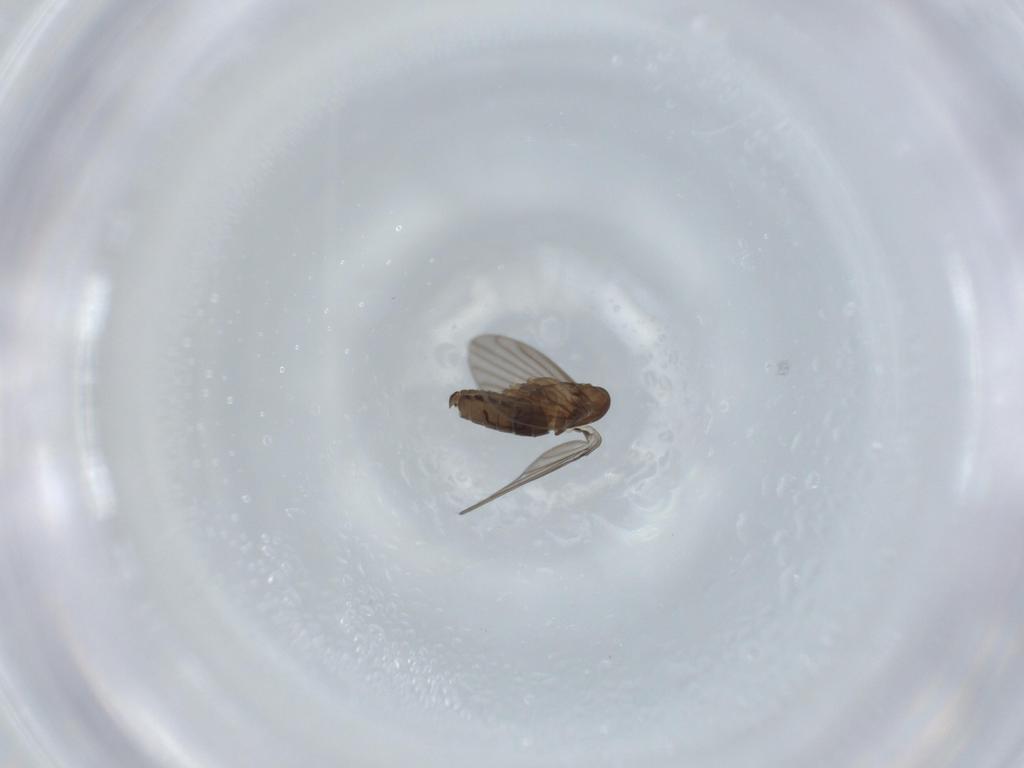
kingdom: Animalia
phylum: Arthropoda
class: Insecta
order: Diptera
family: Psychodidae
